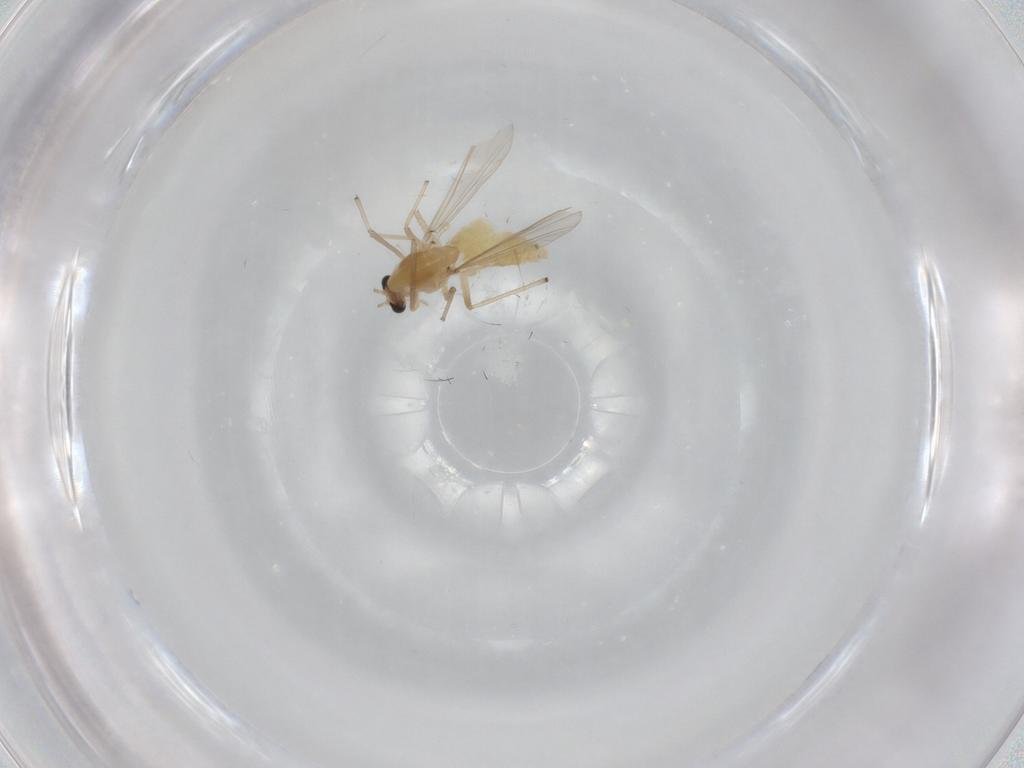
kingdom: Animalia
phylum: Arthropoda
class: Insecta
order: Diptera
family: Chironomidae
